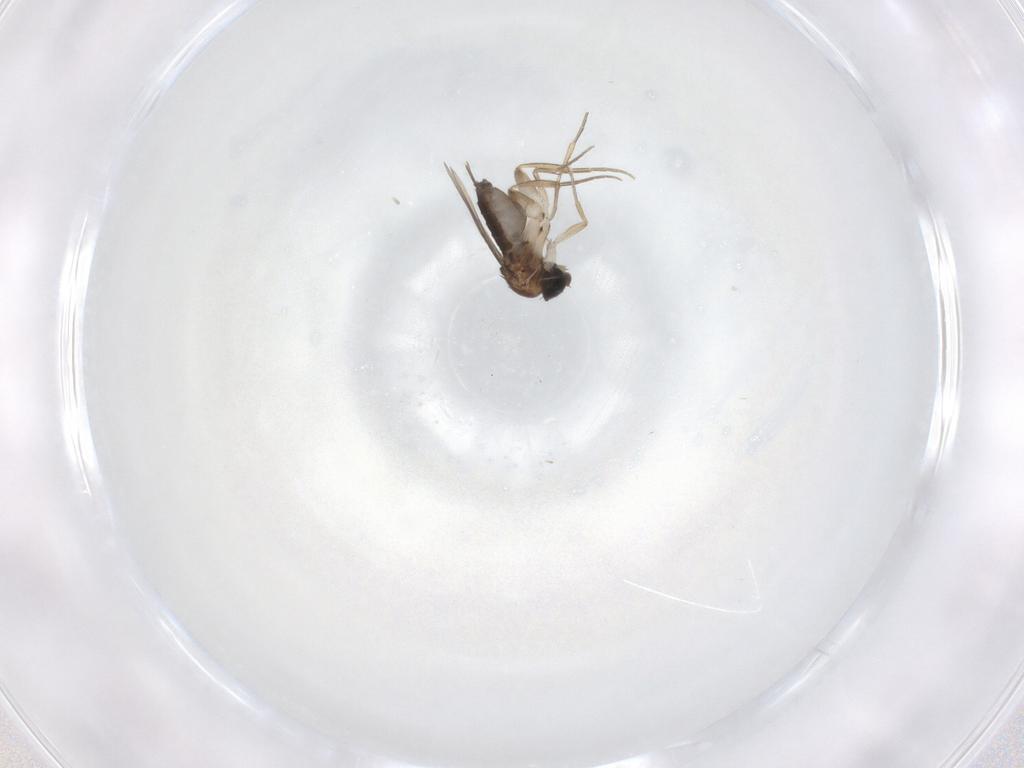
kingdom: Animalia
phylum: Arthropoda
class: Insecta
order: Diptera
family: Phoridae
